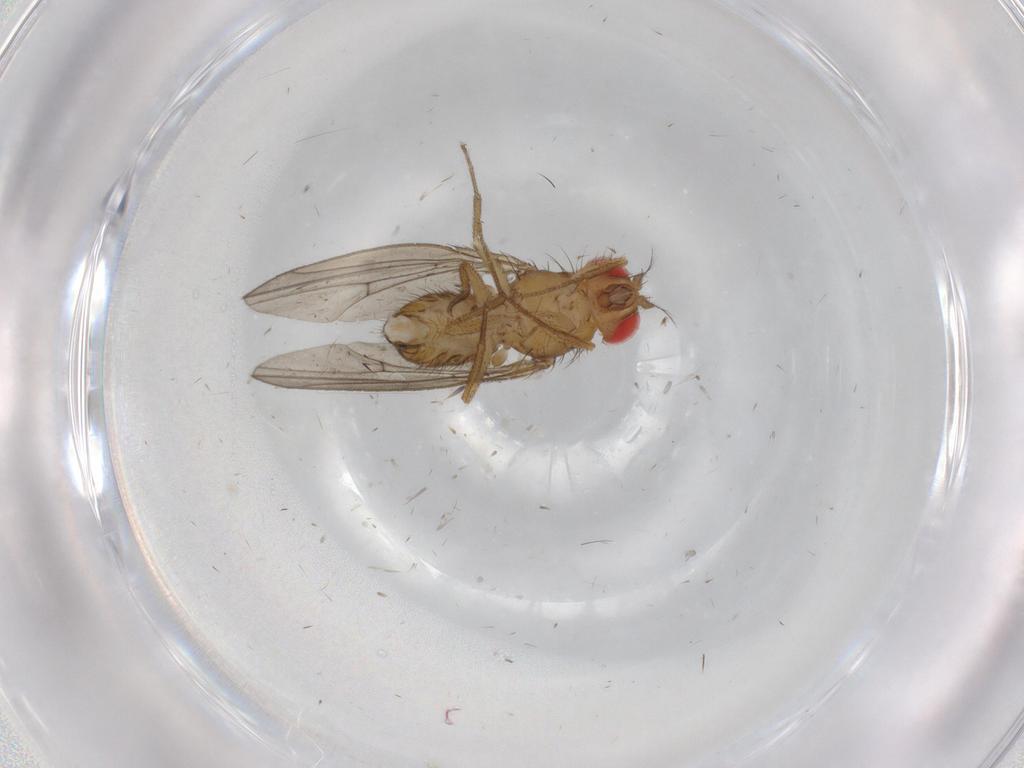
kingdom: Animalia
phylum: Arthropoda
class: Insecta
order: Diptera
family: Drosophilidae
